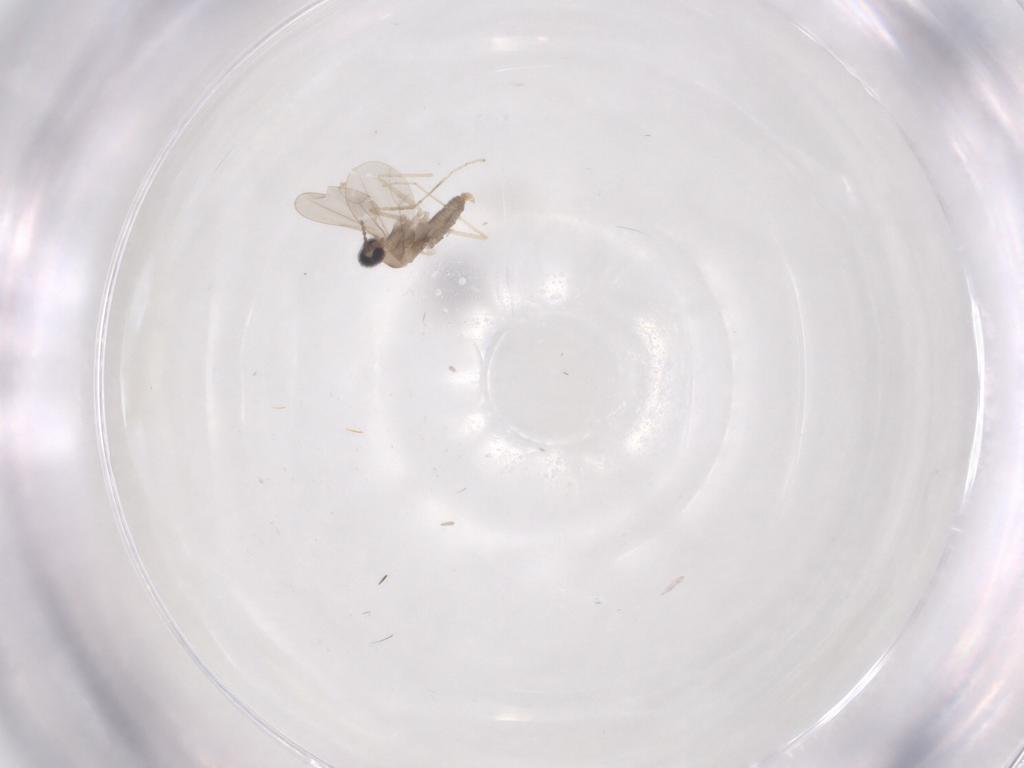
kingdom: Animalia
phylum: Arthropoda
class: Insecta
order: Diptera
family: Cecidomyiidae
